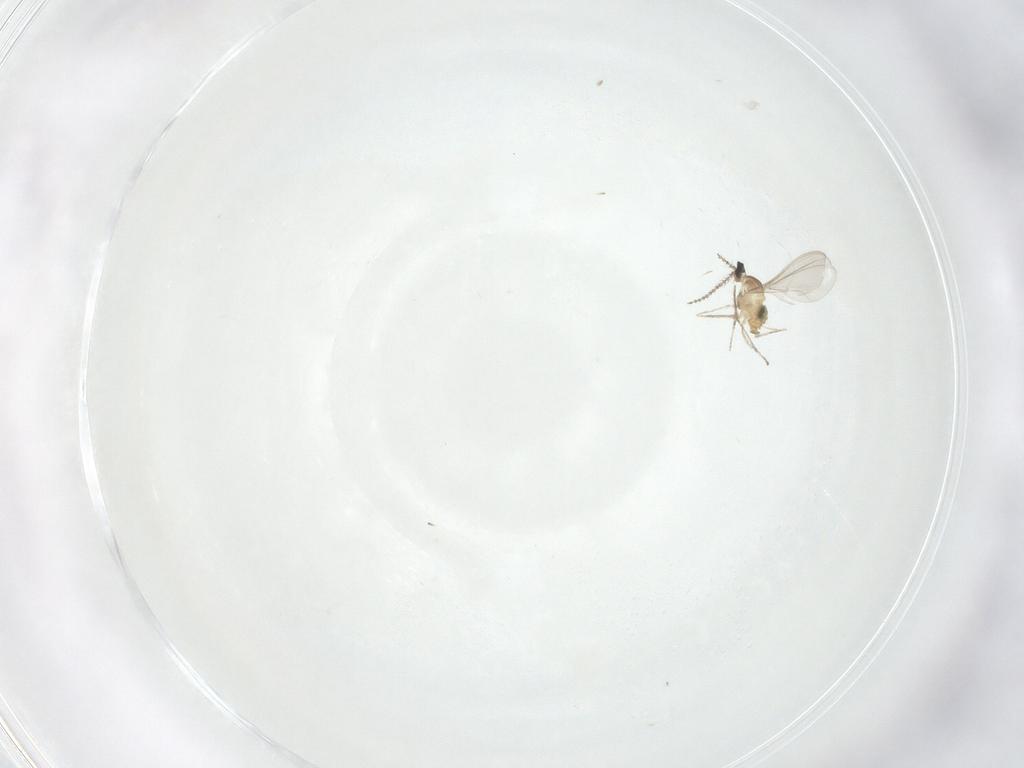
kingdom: Animalia
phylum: Arthropoda
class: Insecta
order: Diptera
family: Cecidomyiidae
